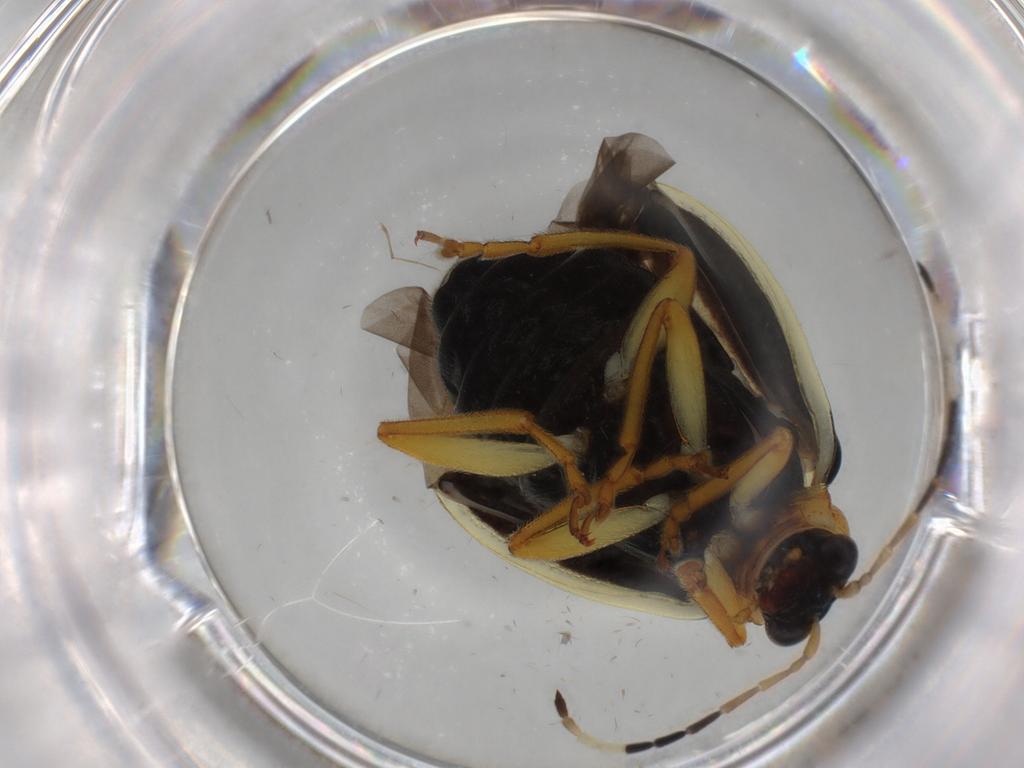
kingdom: Animalia
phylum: Arthropoda
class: Insecta
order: Coleoptera
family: Chrysomelidae
